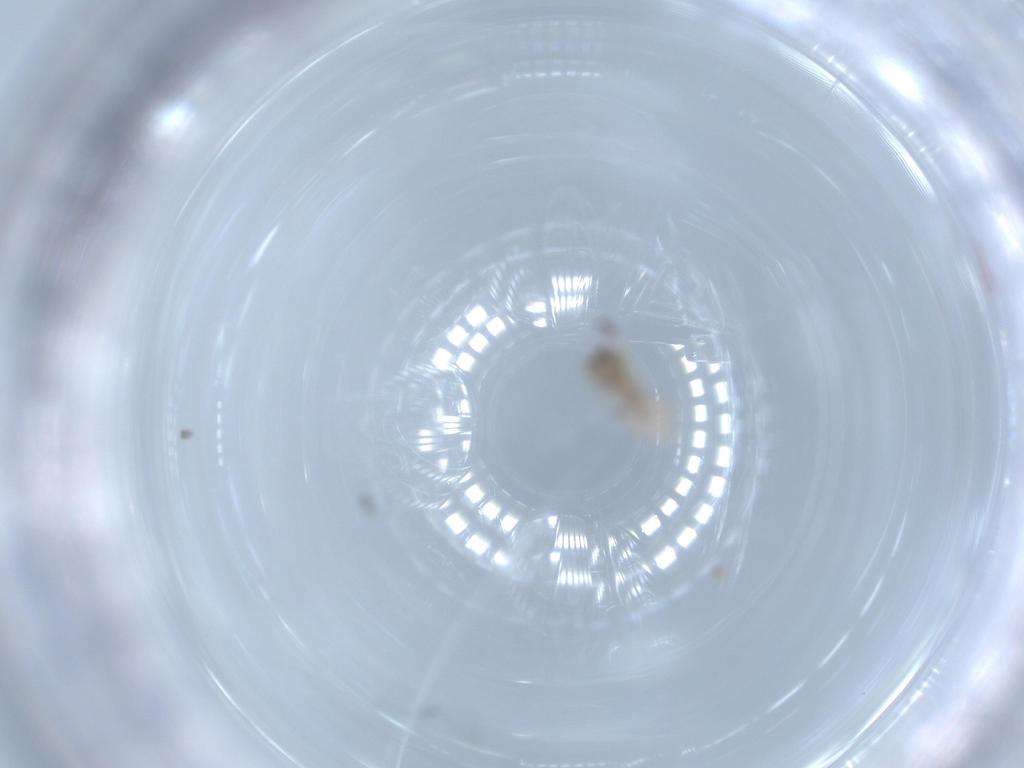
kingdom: Animalia
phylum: Arthropoda
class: Insecta
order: Diptera
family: Cecidomyiidae
